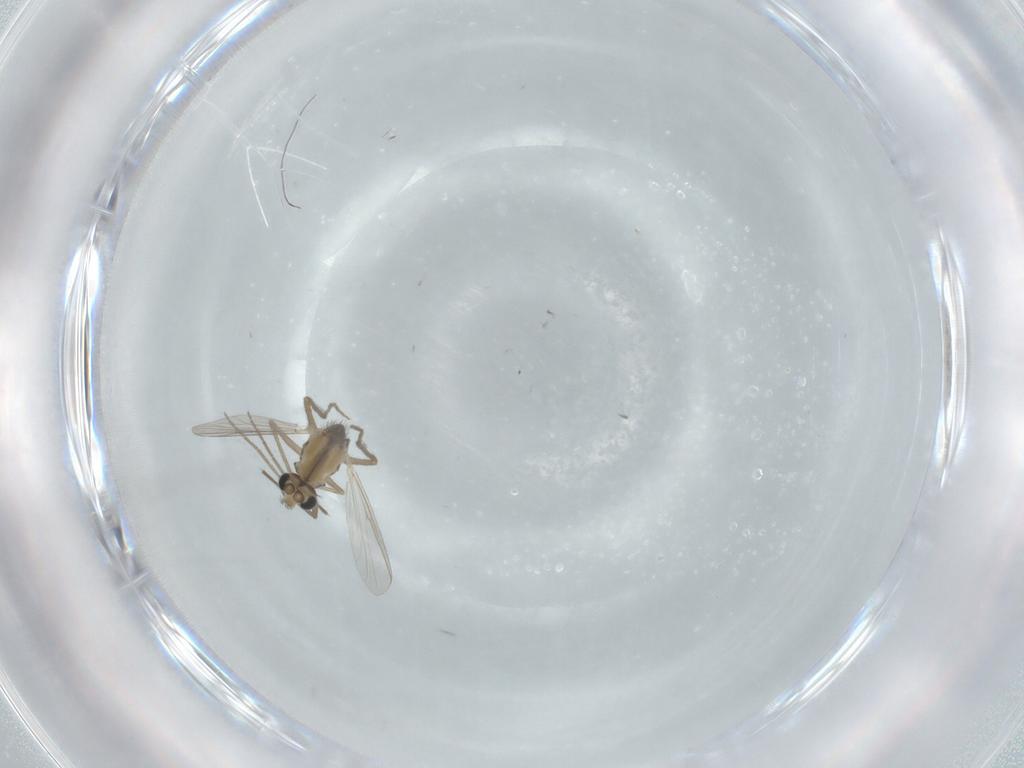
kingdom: Animalia
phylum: Arthropoda
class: Insecta
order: Diptera
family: Chironomidae
